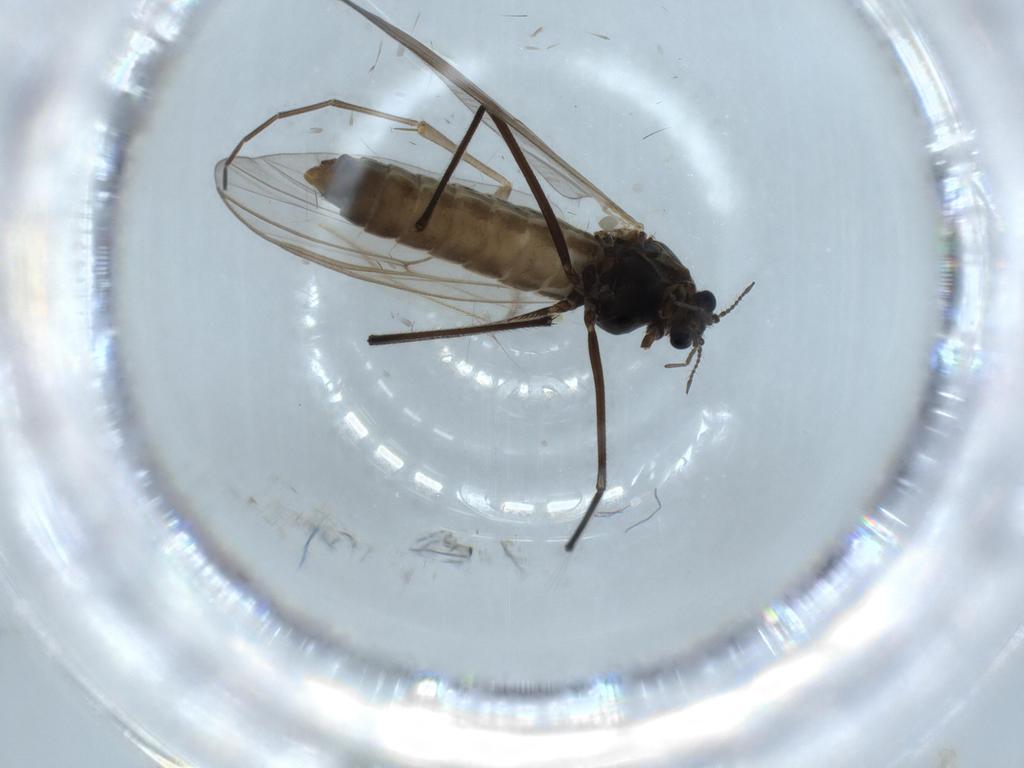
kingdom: Animalia
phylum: Arthropoda
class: Insecta
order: Diptera
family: Chironomidae
